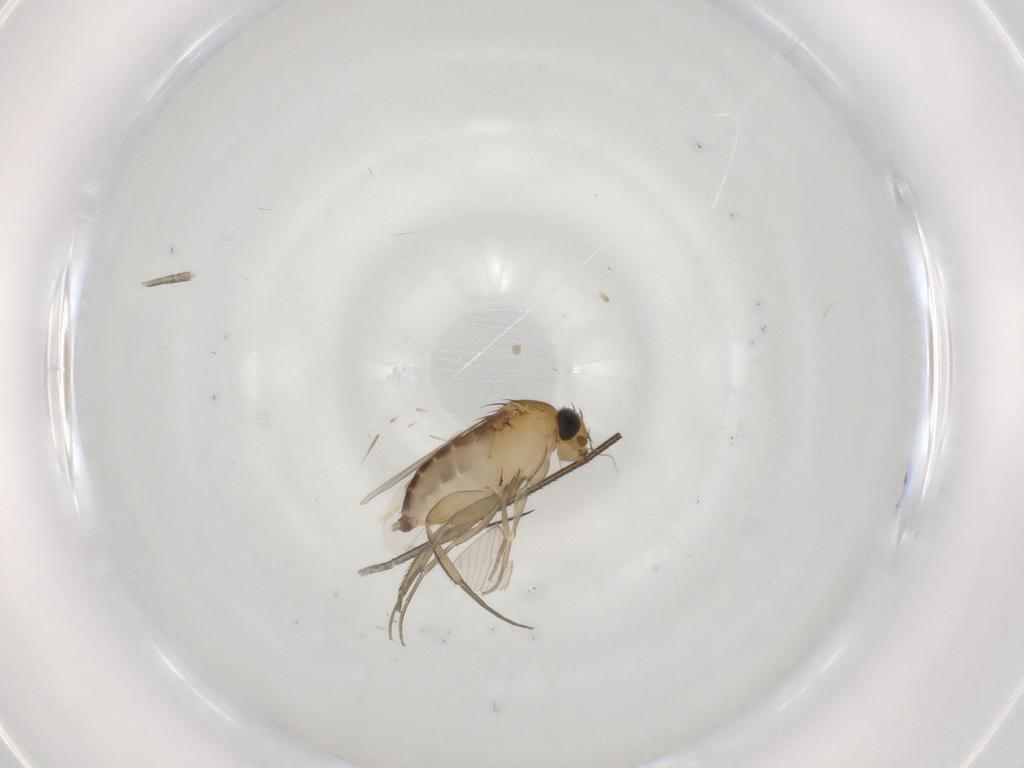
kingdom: Animalia
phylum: Arthropoda
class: Insecta
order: Diptera
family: Phoridae
